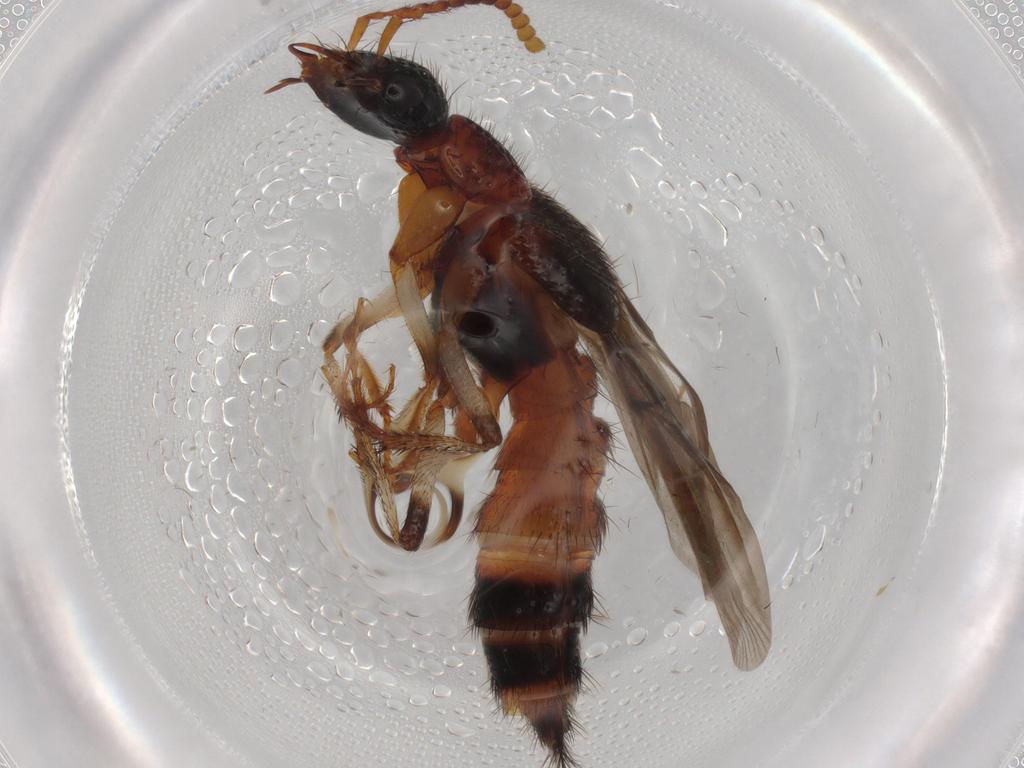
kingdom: Animalia
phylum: Arthropoda
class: Insecta
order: Coleoptera
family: Staphylinidae
